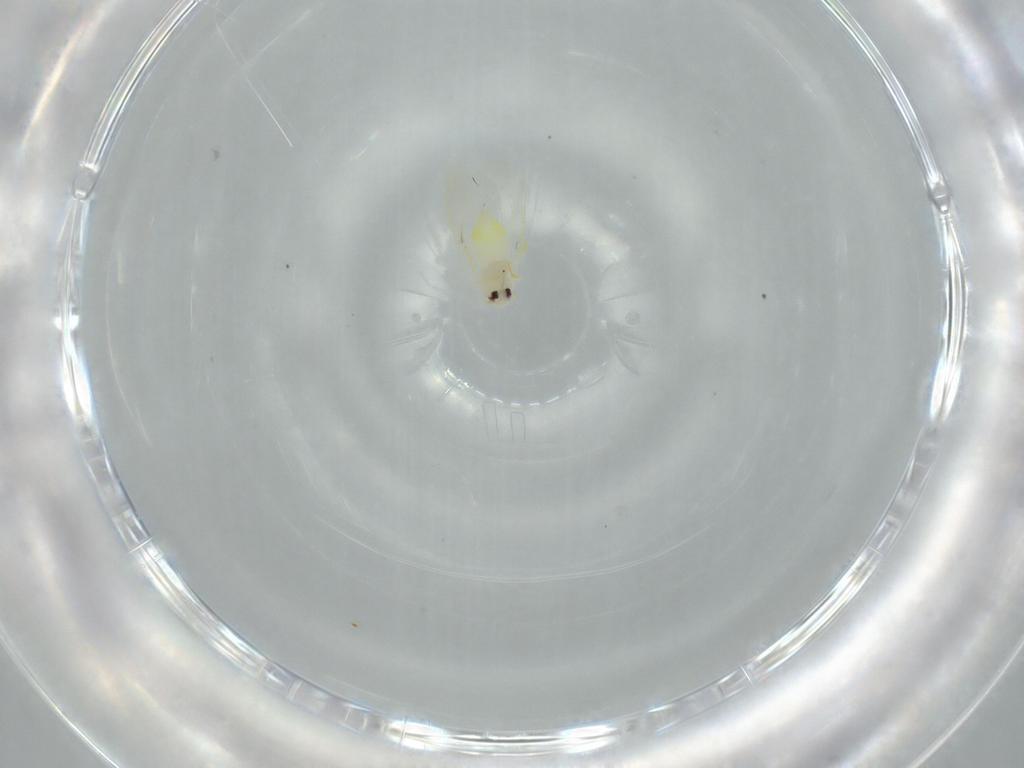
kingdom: Animalia
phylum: Arthropoda
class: Insecta
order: Hemiptera
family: Aleyrodidae
